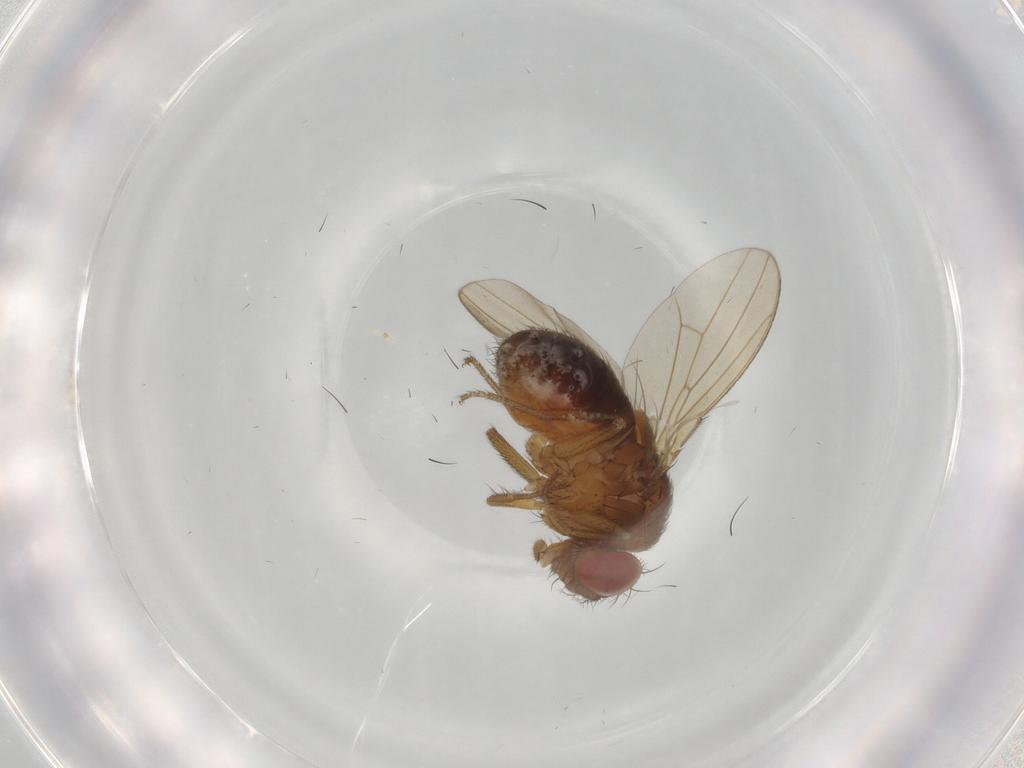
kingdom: Animalia
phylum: Arthropoda
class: Insecta
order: Diptera
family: Drosophilidae
